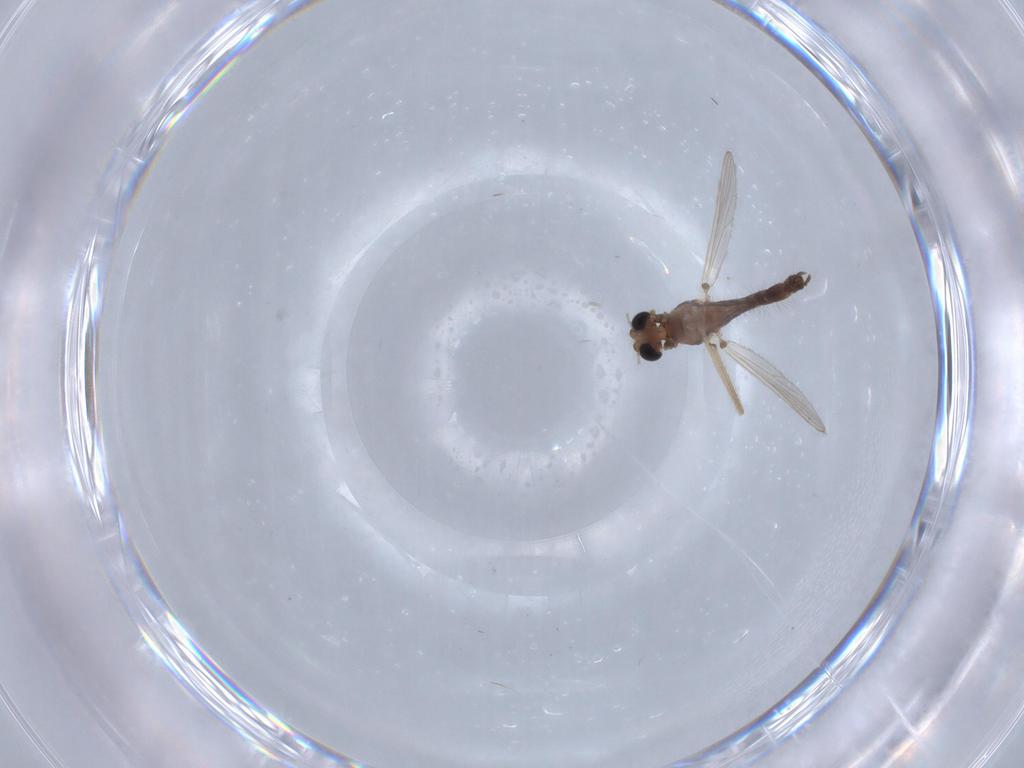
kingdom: Animalia
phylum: Arthropoda
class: Insecta
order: Diptera
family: Chironomidae
